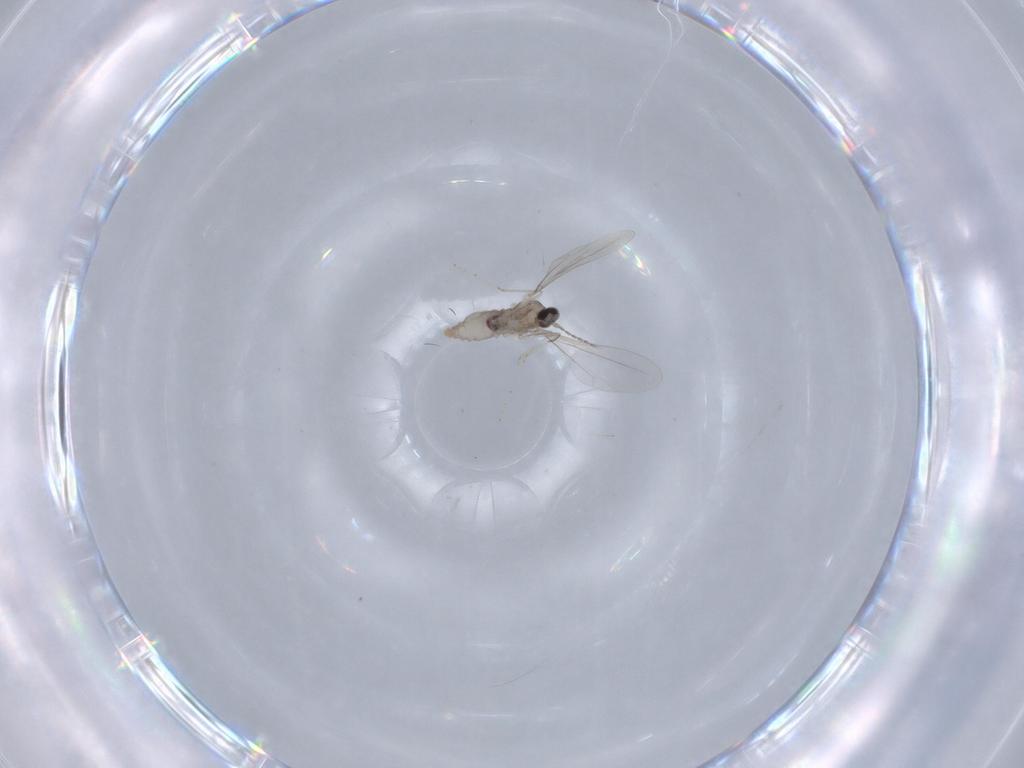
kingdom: Animalia
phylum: Arthropoda
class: Insecta
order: Diptera
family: Cecidomyiidae
